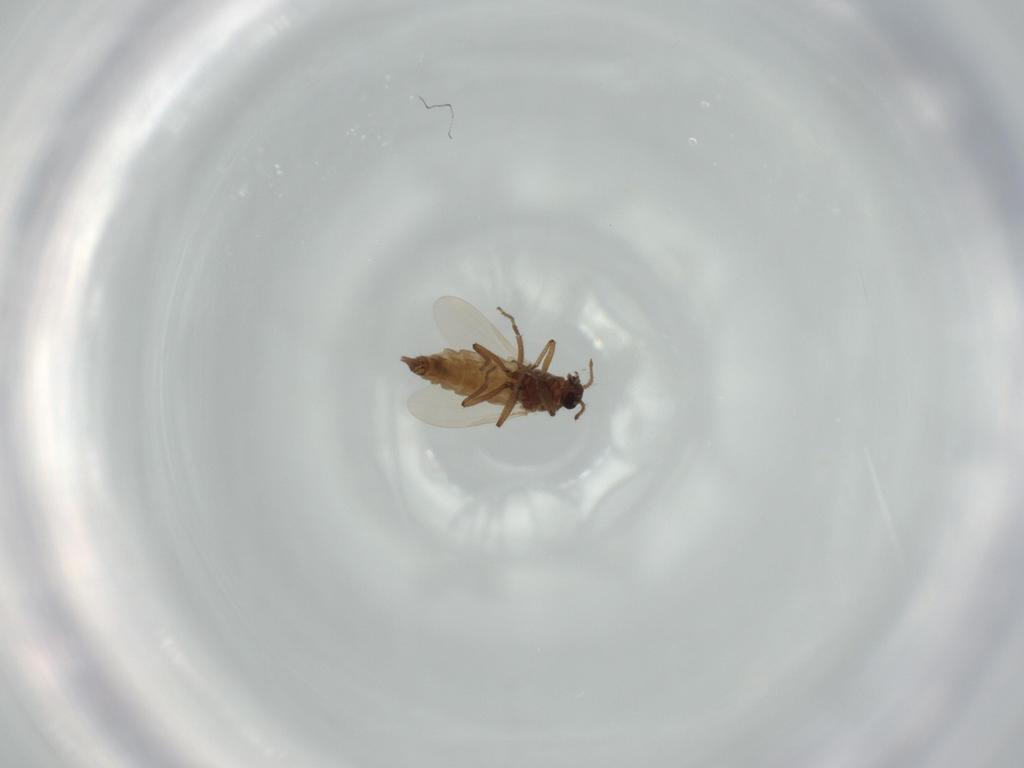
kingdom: Animalia
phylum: Arthropoda
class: Insecta
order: Diptera
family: Ceratopogonidae
